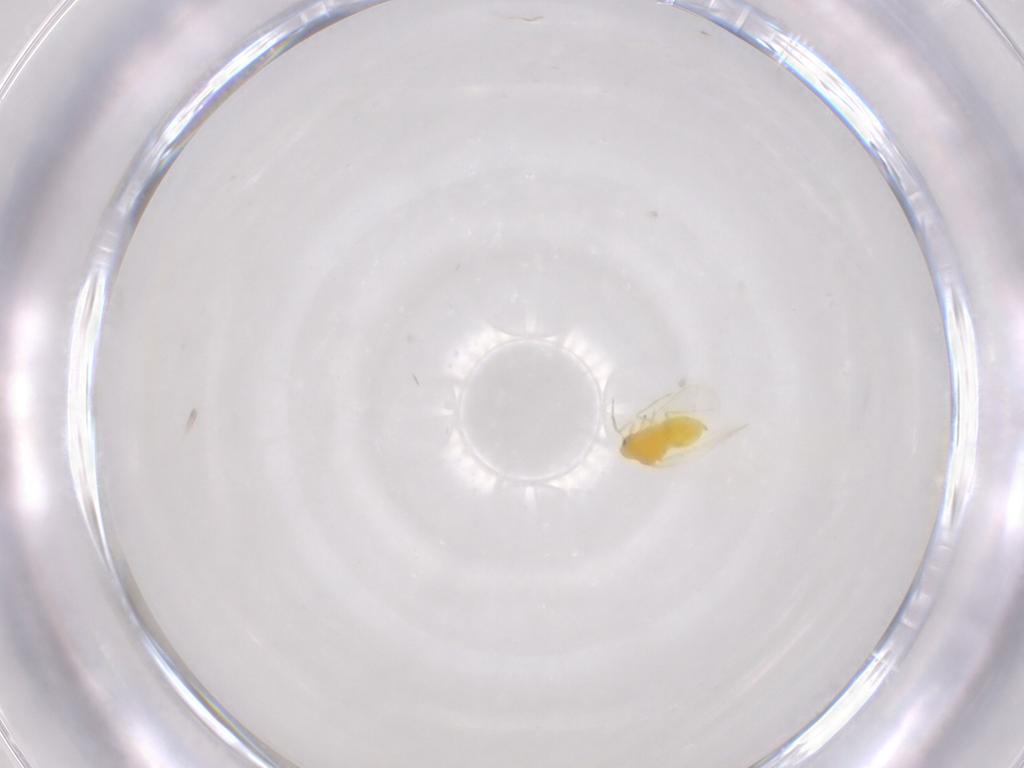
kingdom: Animalia
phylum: Arthropoda
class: Insecta
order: Hemiptera
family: Aleyrodidae
